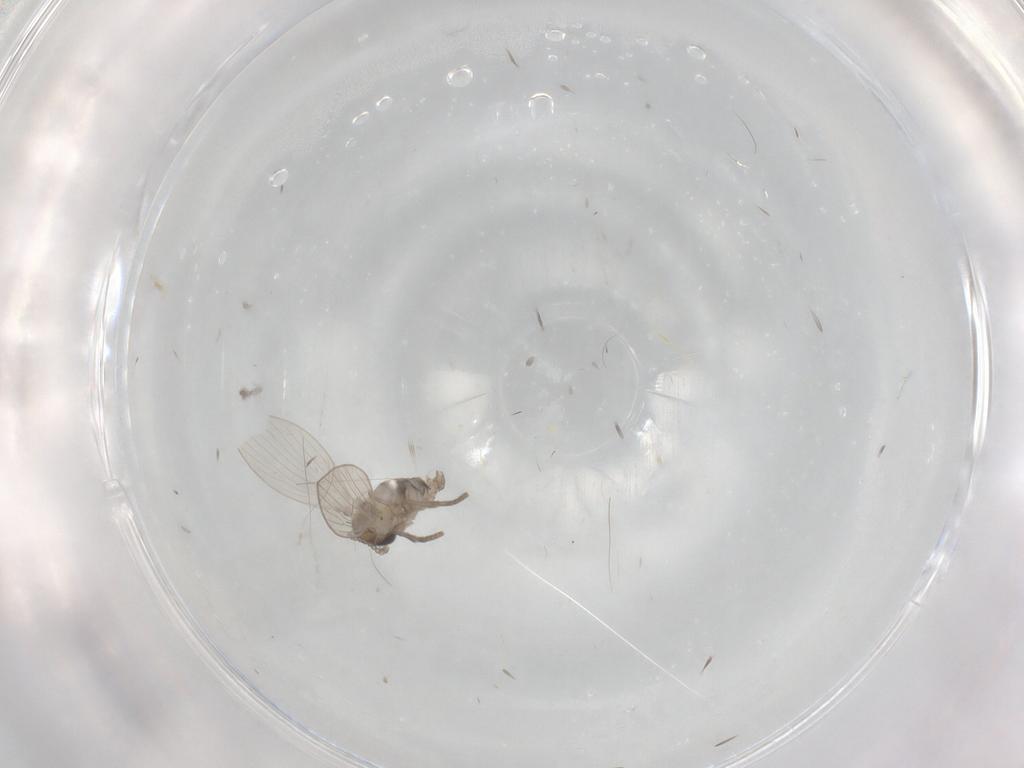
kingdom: Animalia
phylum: Arthropoda
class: Insecta
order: Diptera
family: Psychodidae
